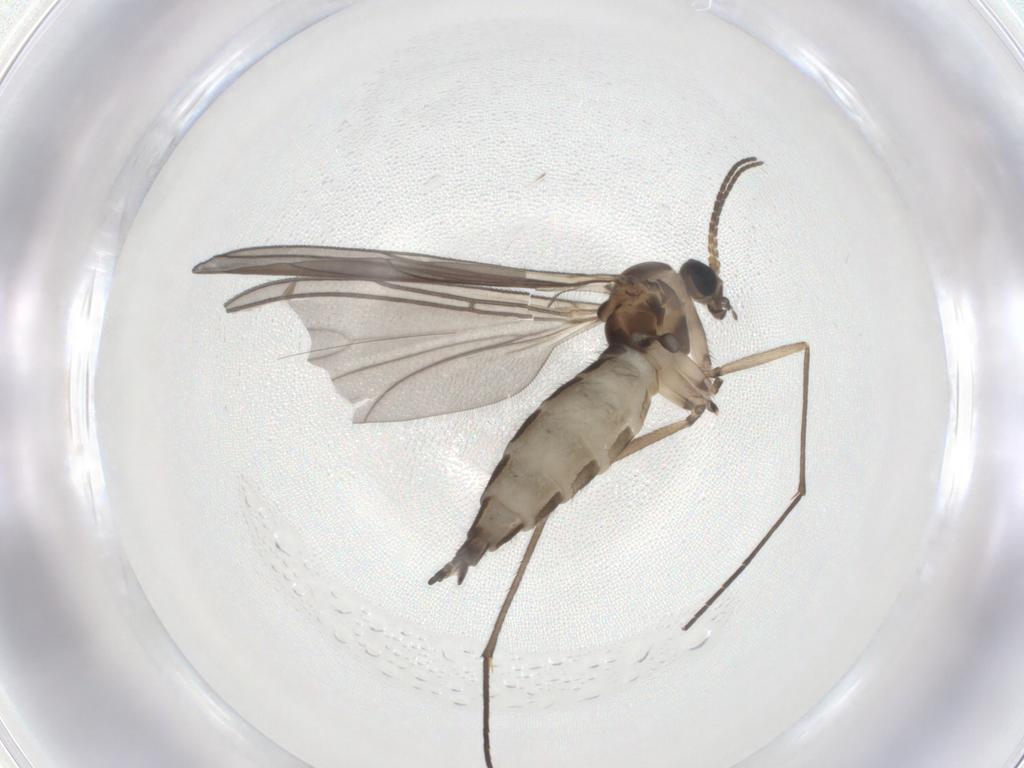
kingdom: Animalia
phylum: Arthropoda
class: Insecta
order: Diptera
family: Sciaridae
